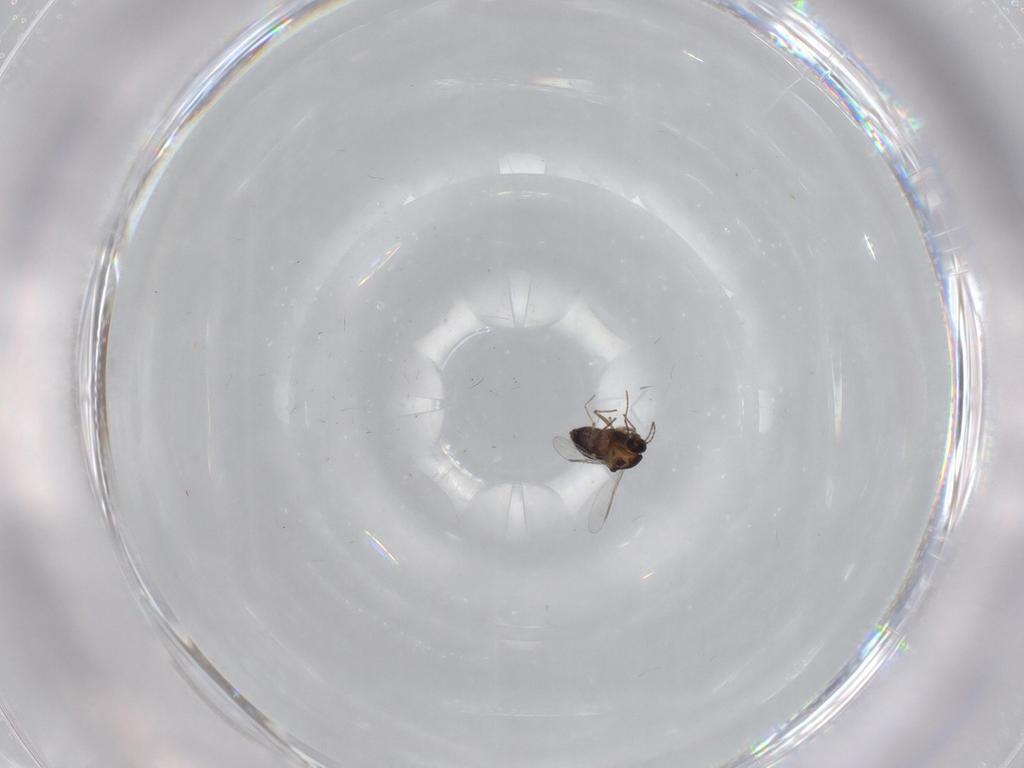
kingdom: Animalia
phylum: Arthropoda
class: Insecta
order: Diptera
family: Chironomidae
